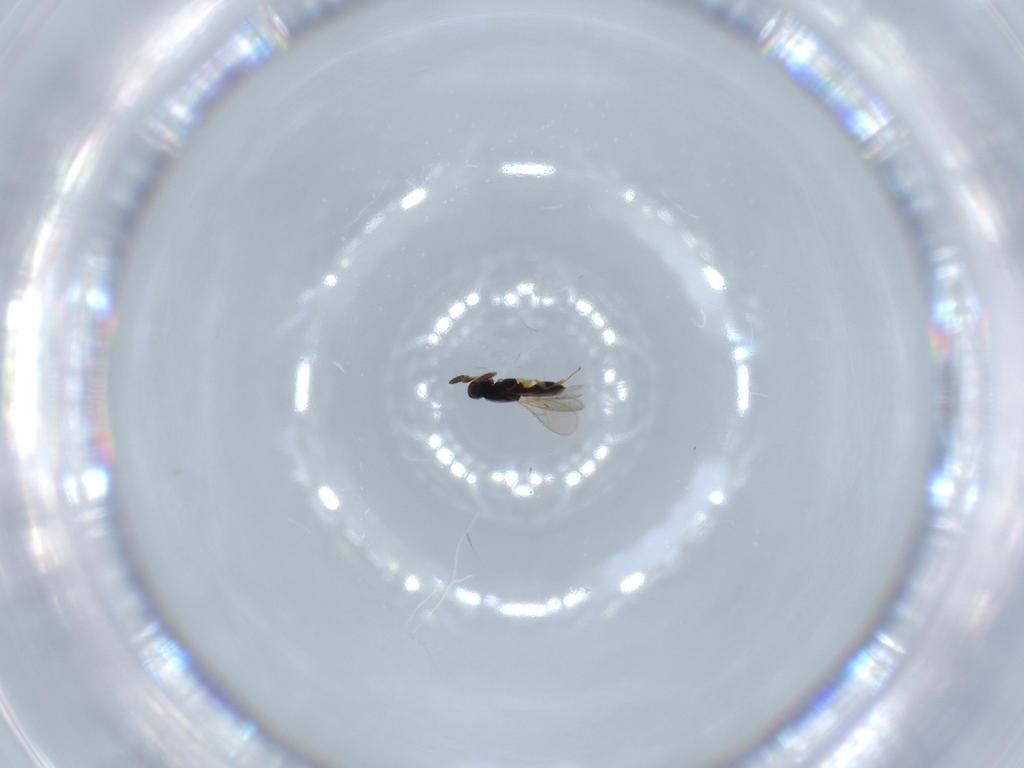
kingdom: Animalia
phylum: Arthropoda
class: Insecta
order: Hymenoptera
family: Scelionidae
